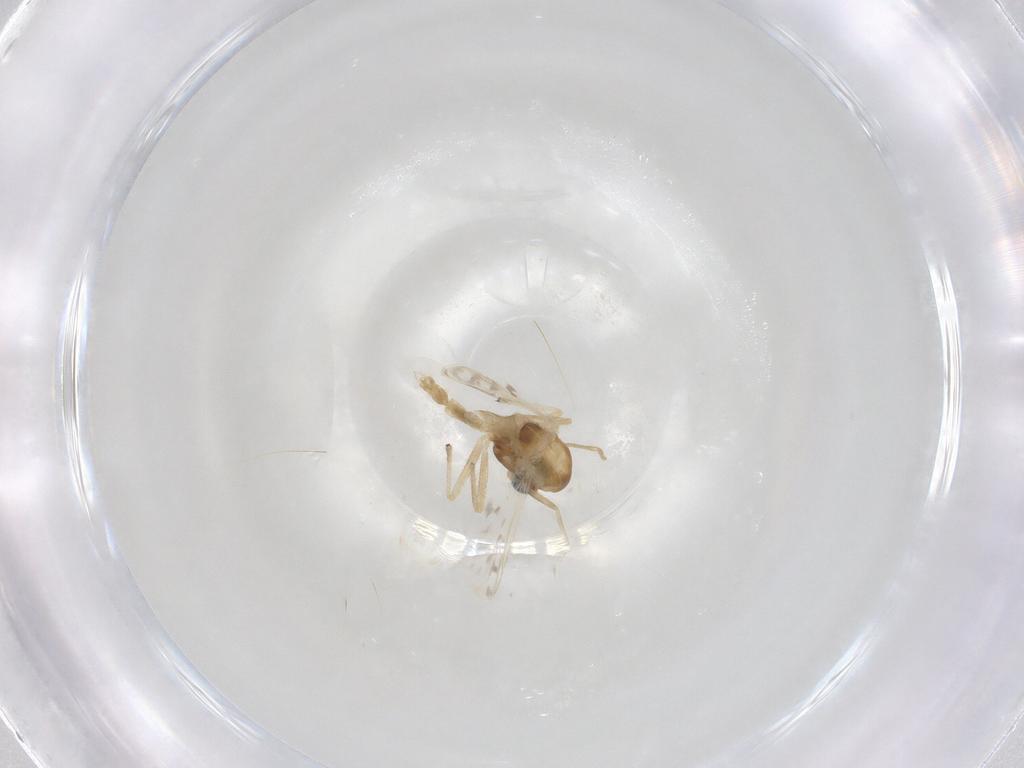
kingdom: Animalia
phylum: Arthropoda
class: Insecta
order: Diptera
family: Chironomidae
